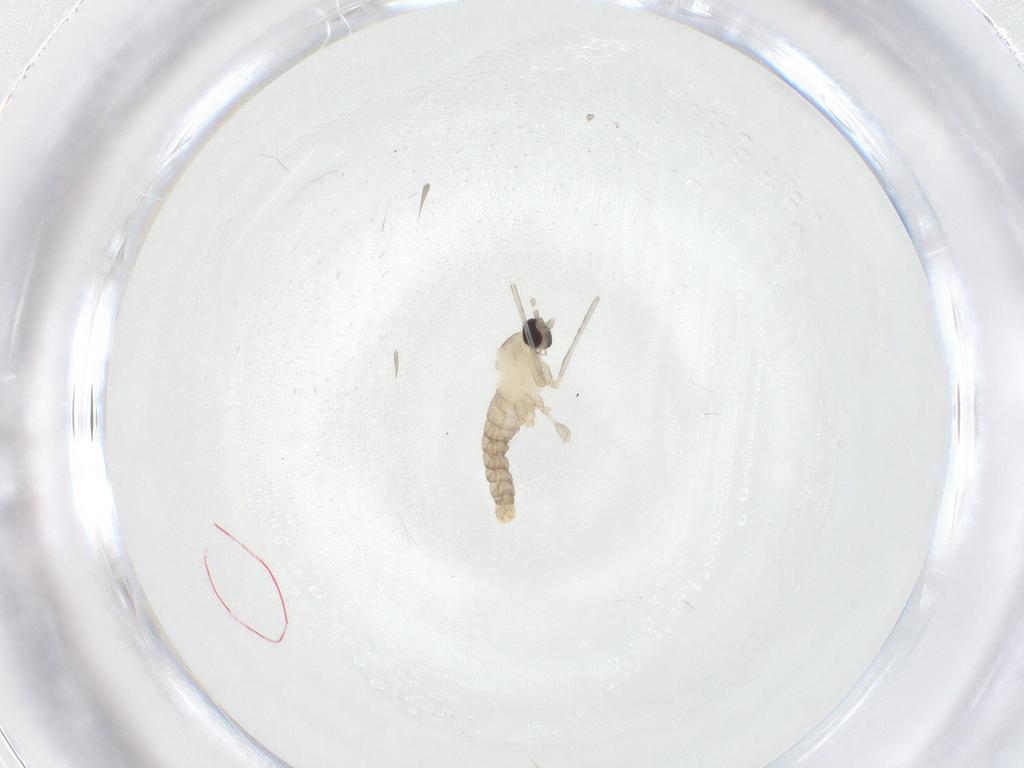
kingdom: Animalia
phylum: Arthropoda
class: Insecta
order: Diptera
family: Cecidomyiidae
